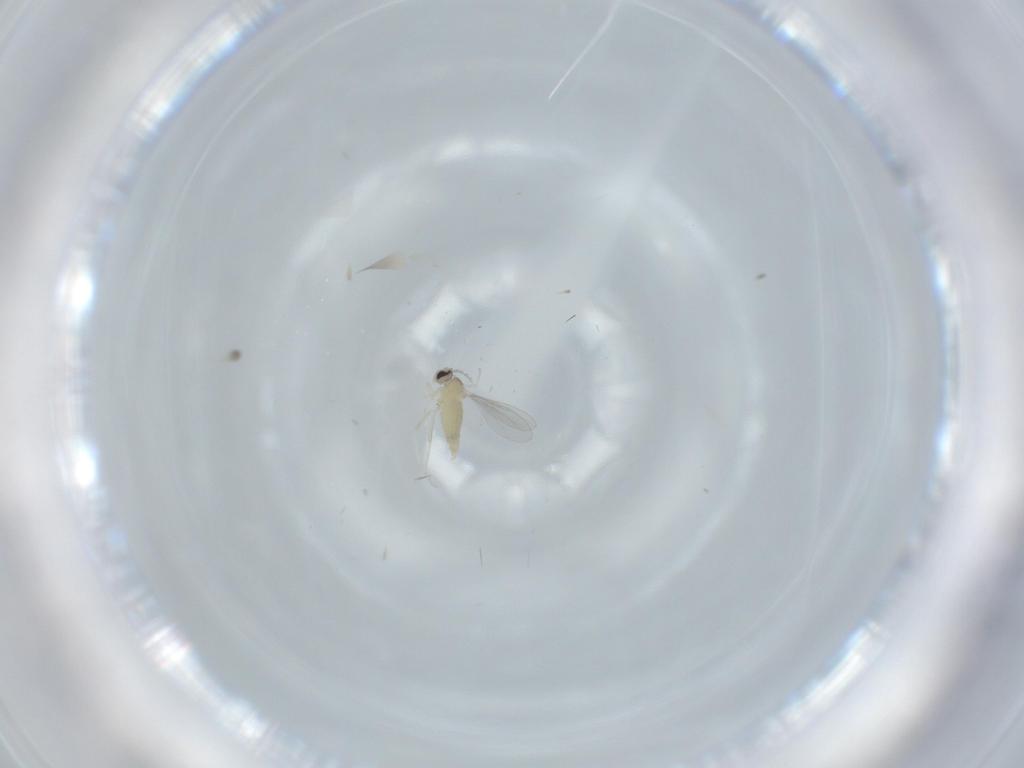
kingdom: Animalia
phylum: Arthropoda
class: Insecta
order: Diptera
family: Cecidomyiidae
